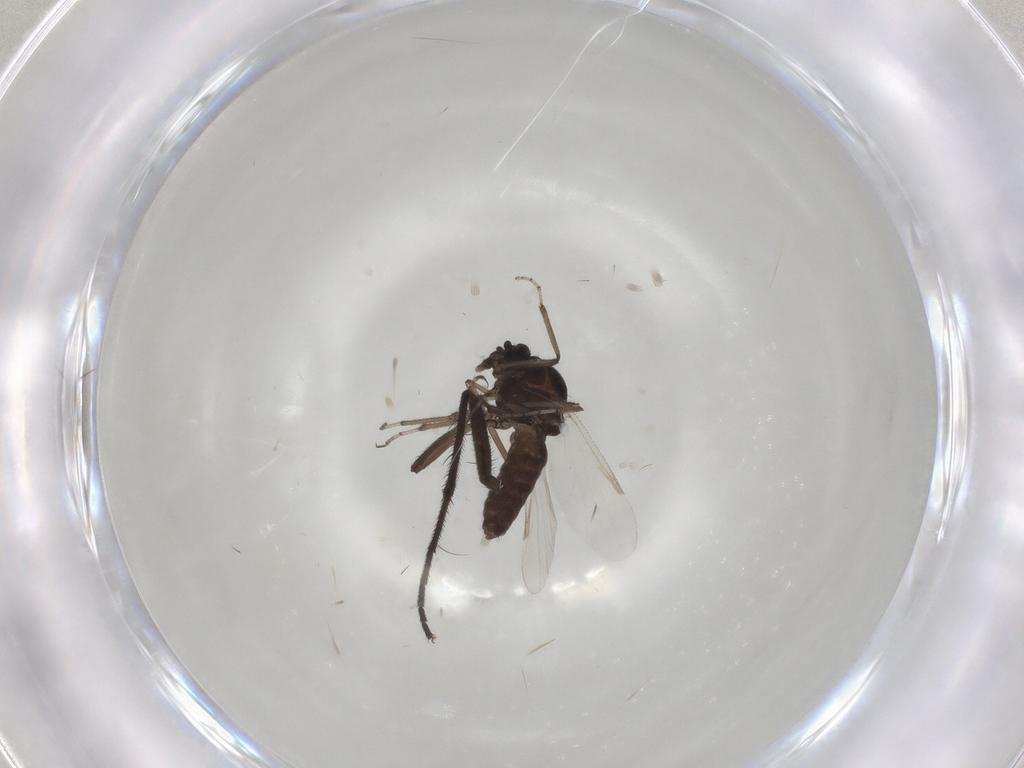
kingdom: Animalia
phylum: Arthropoda
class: Insecta
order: Diptera
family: Ceratopogonidae
